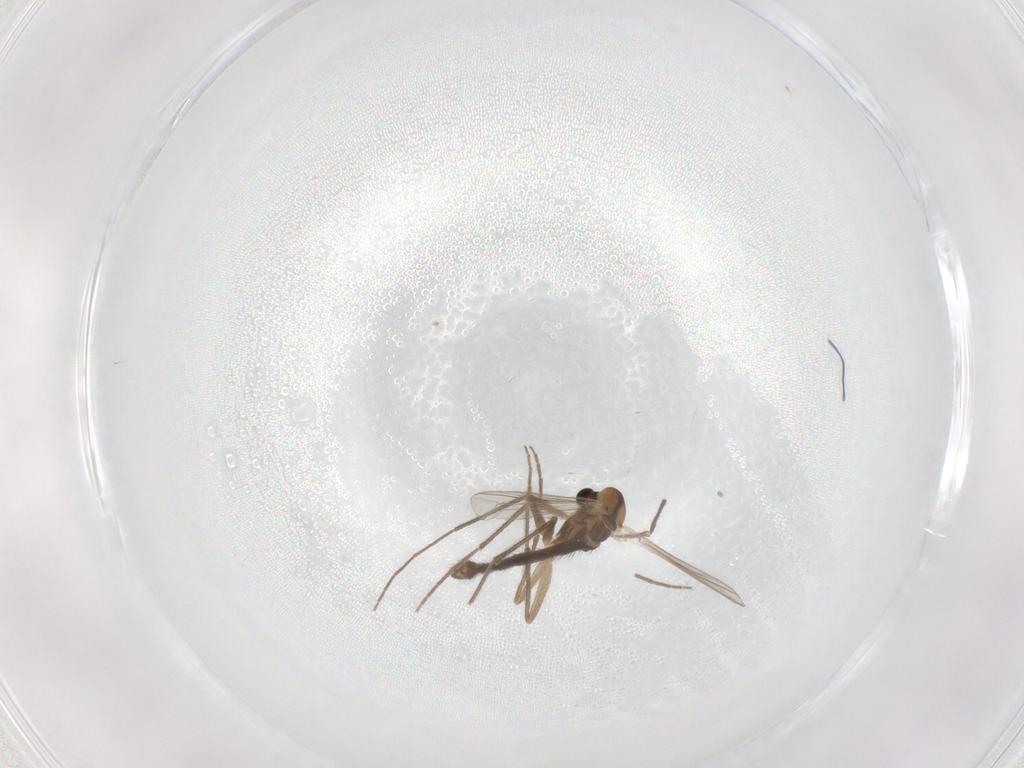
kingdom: Animalia
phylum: Arthropoda
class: Insecta
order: Diptera
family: Chironomidae
